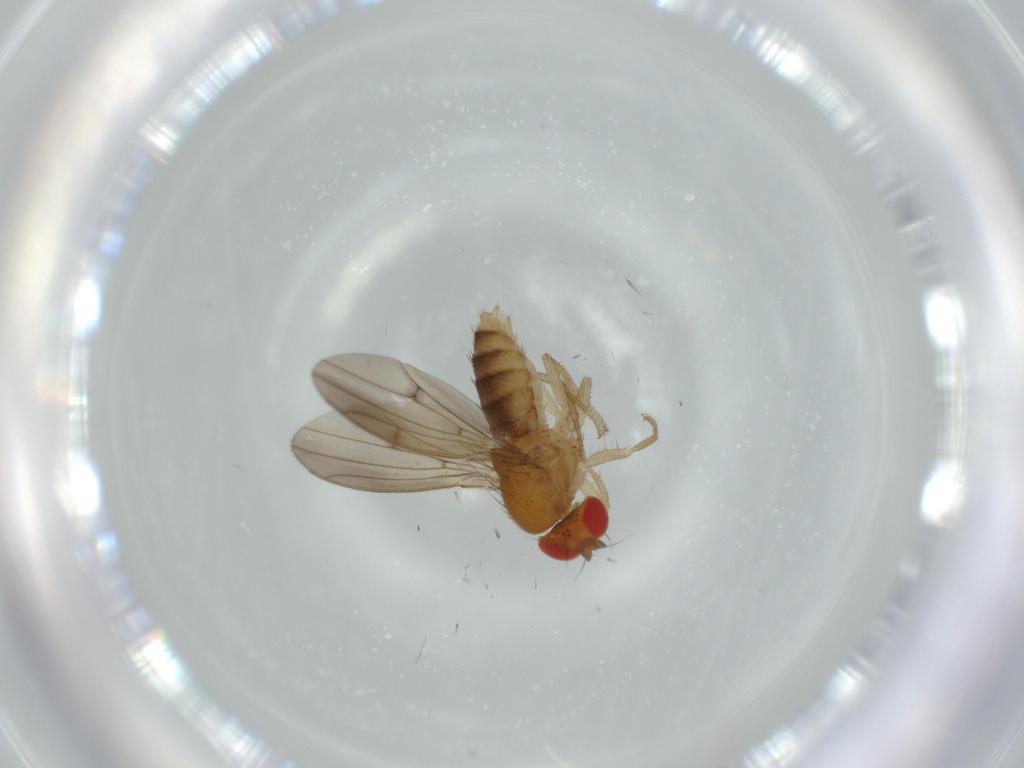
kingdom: Animalia
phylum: Arthropoda
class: Insecta
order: Diptera
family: Drosophilidae
